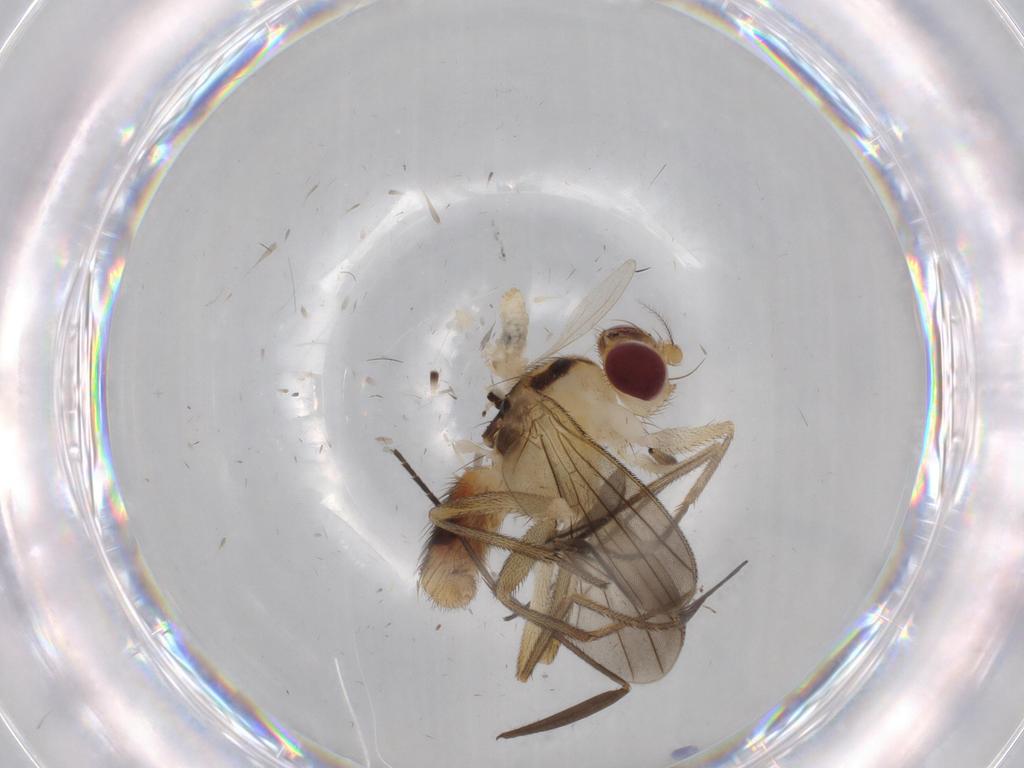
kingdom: Animalia
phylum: Arthropoda
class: Insecta
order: Diptera
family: Clusiidae
